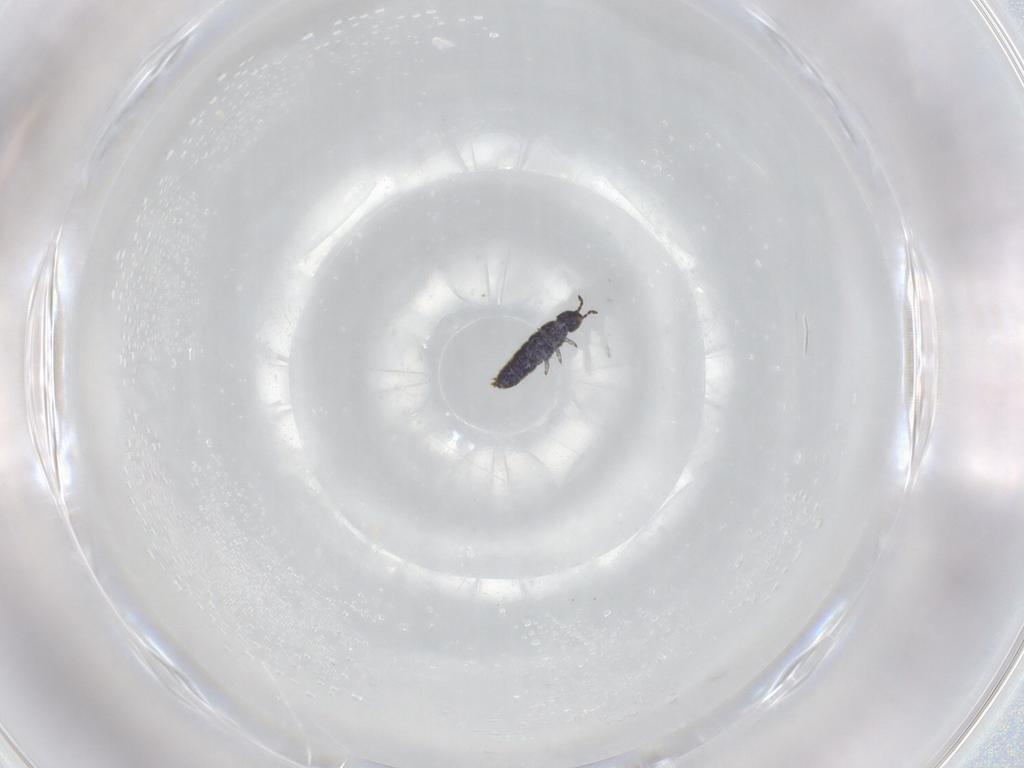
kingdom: Animalia
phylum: Arthropoda
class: Collembola
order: Entomobryomorpha
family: Isotomidae
